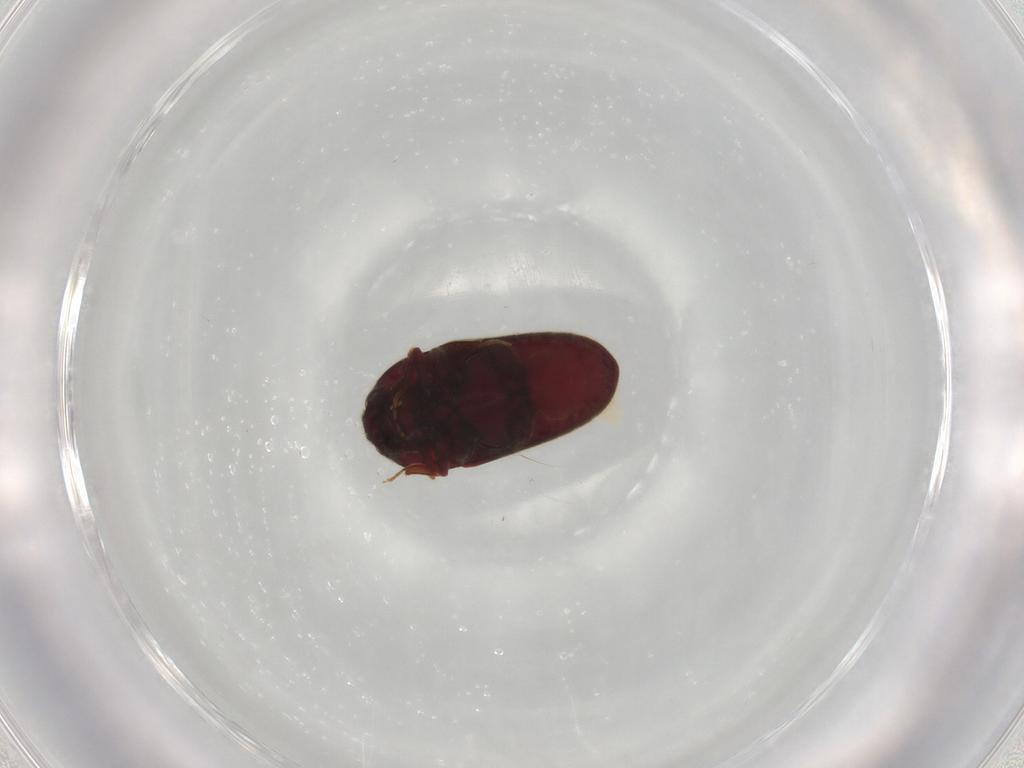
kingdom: Animalia
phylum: Arthropoda
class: Insecta
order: Coleoptera
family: Throscidae
